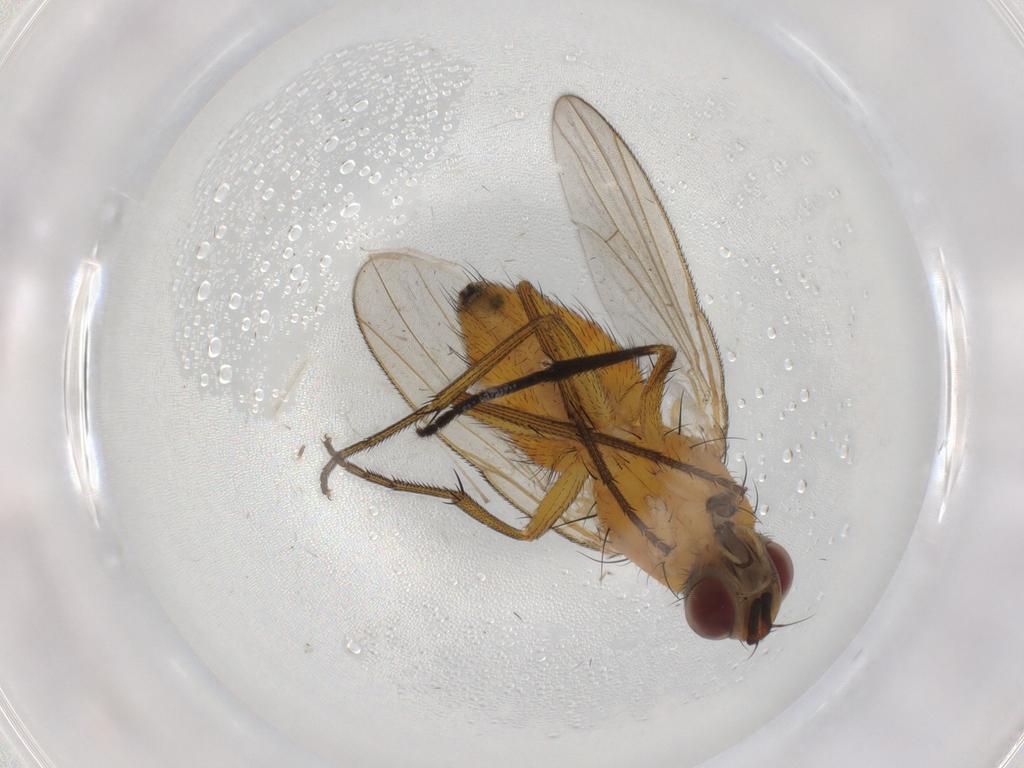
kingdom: Animalia
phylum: Arthropoda
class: Insecta
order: Diptera
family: Muscidae
